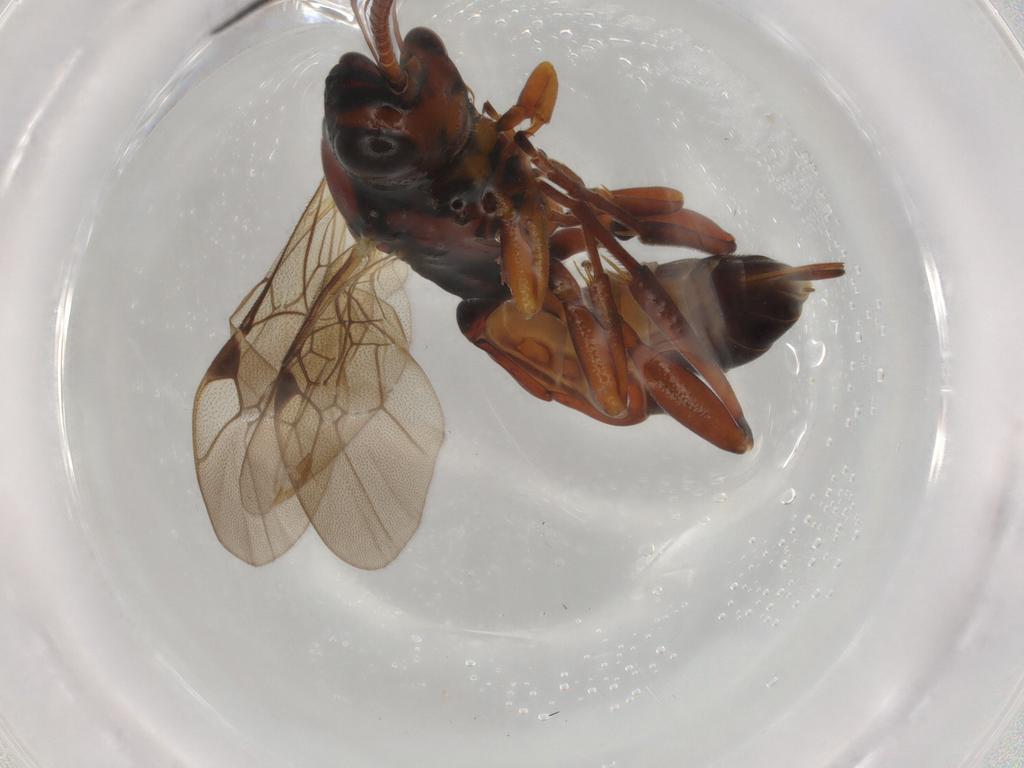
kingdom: Animalia
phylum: Arthropoda
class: Insecta
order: Hymenoptera
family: Ichneumonidae
